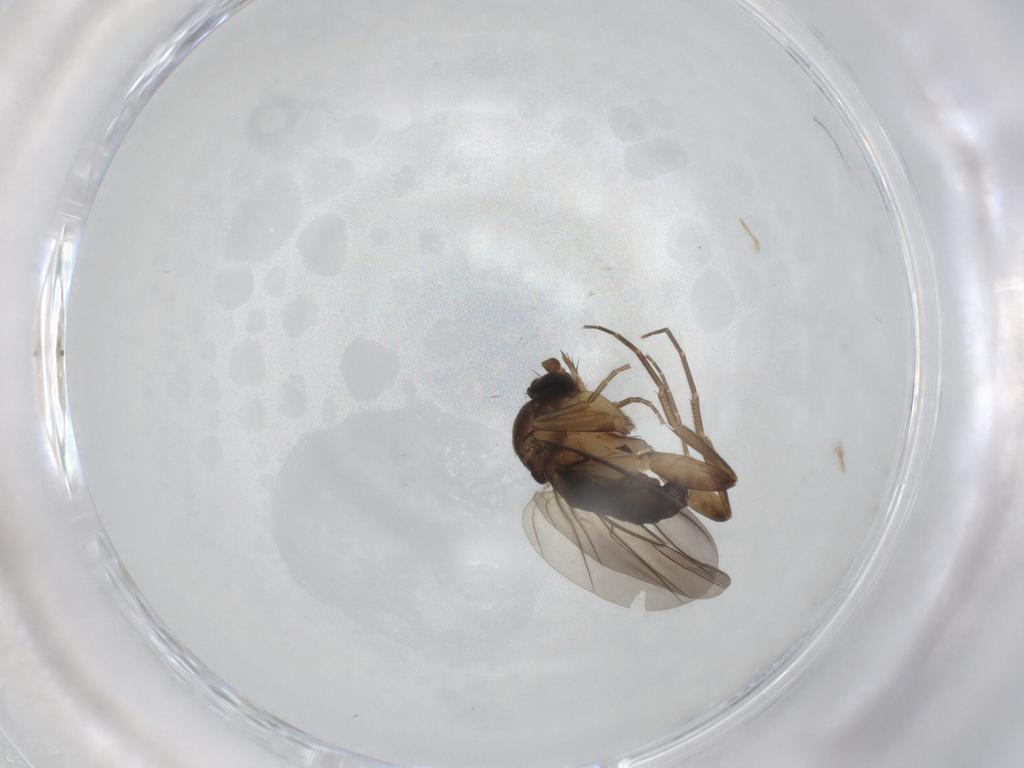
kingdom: Animalia
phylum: Arthropoda
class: Insecta
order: Diptera
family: Phoridae
